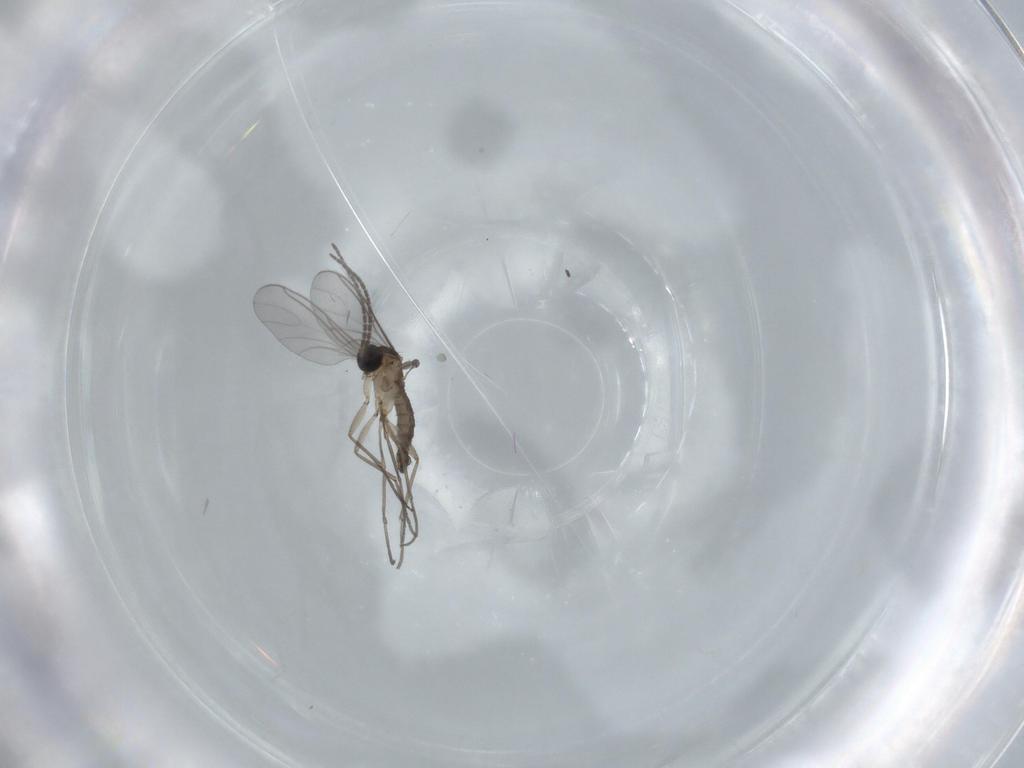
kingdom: Animalia
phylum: Arthropoda
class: Insecta
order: Diptera
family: Sciaridae
